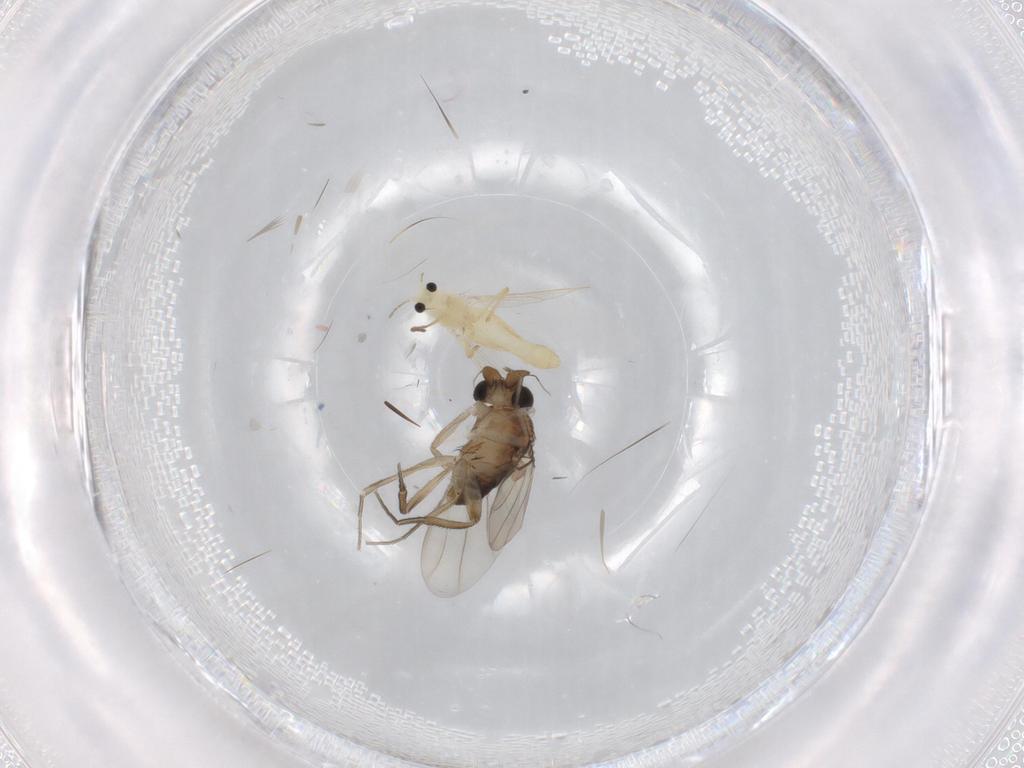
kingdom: Animalia
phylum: Arthropoda
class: Insecta
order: Diptera
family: Chironomidae
